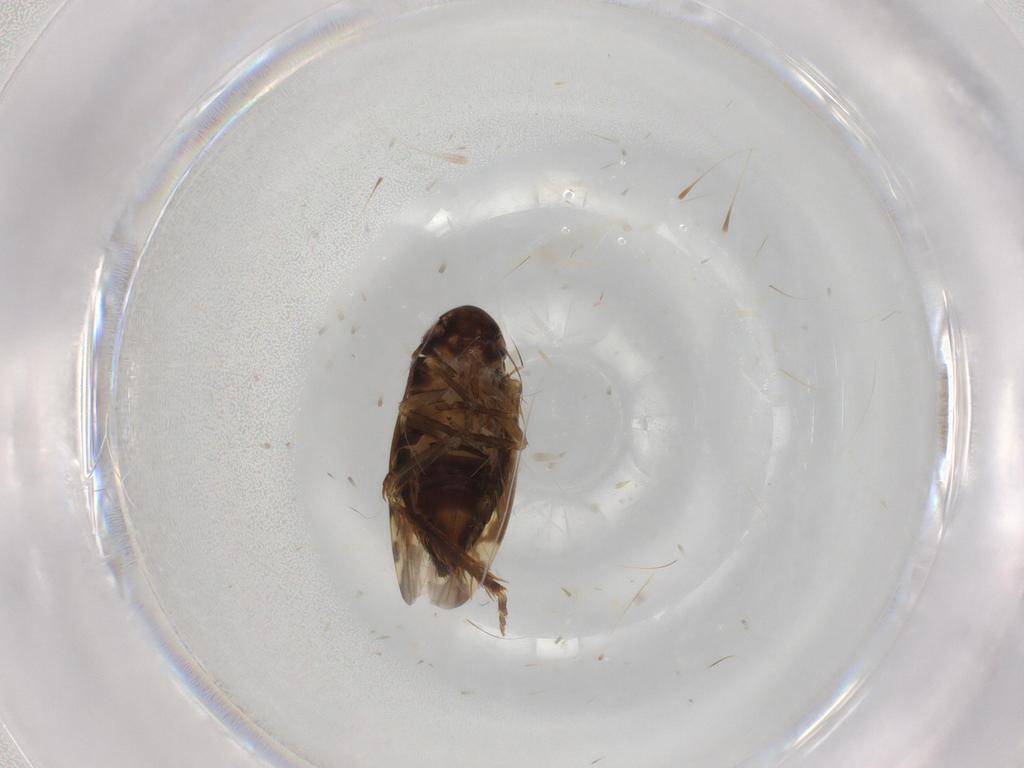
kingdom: Animalia
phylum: Arthropoda
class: Insecta
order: Hemiptera
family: Cicadellidae
